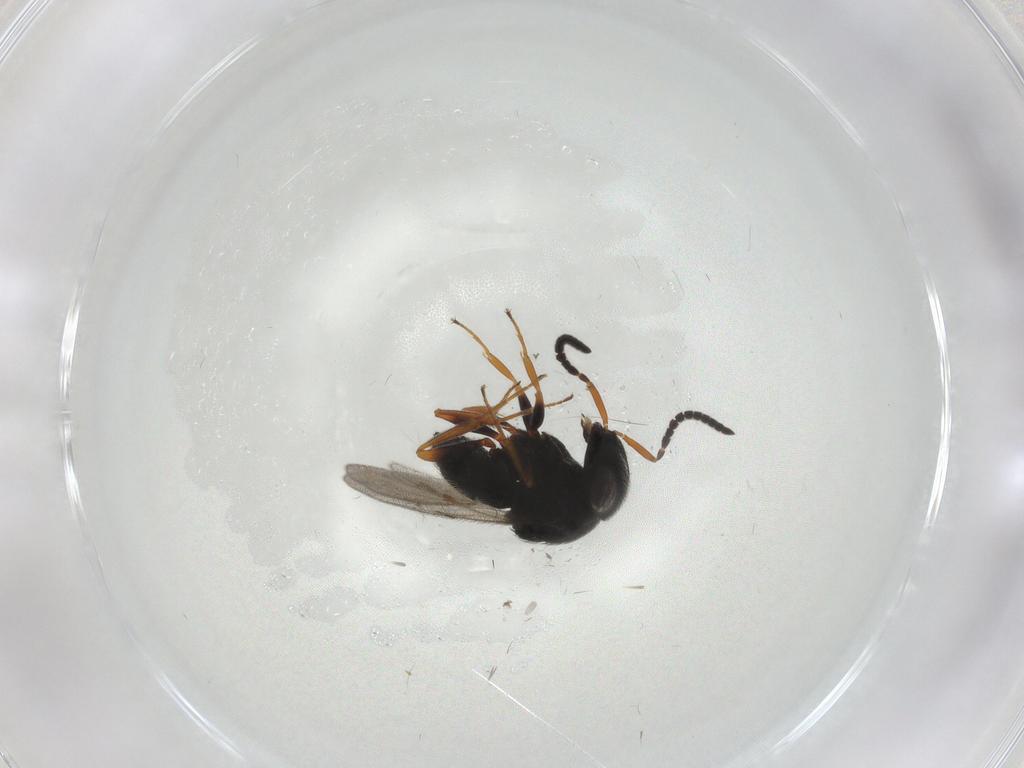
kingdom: Animalia
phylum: Arthropoda
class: Insecta
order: Hymenoptera
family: Scelionidae
